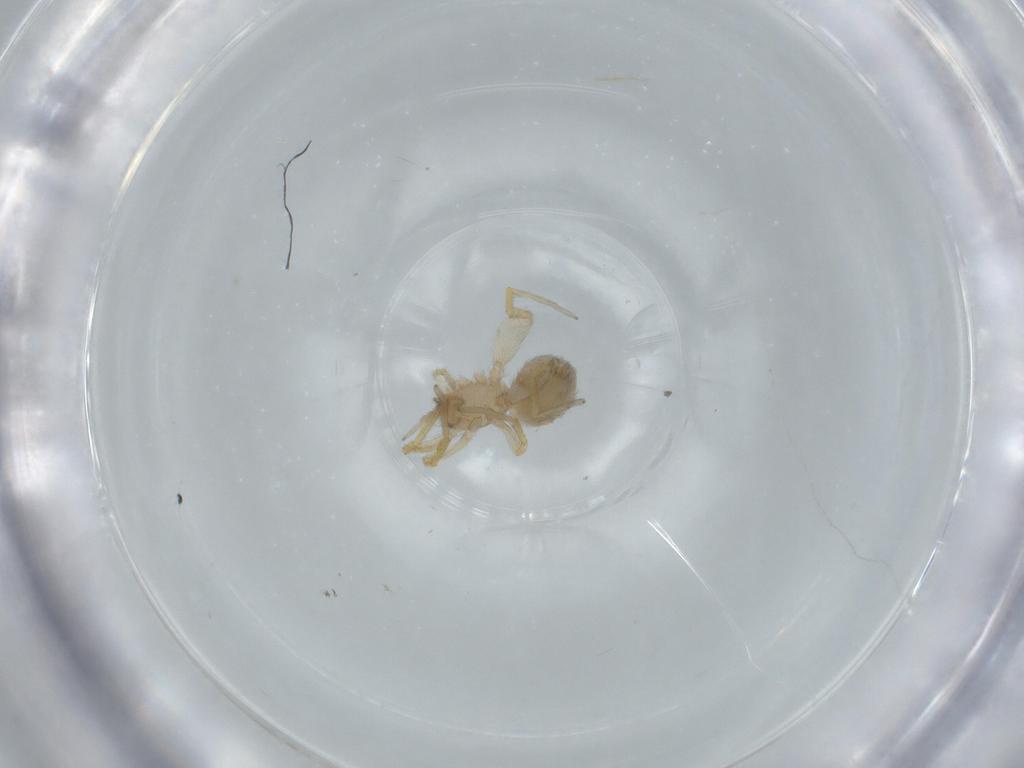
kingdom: Animalia
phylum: Arthropoda
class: Arachnida
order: Araneae
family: Oonopidae
